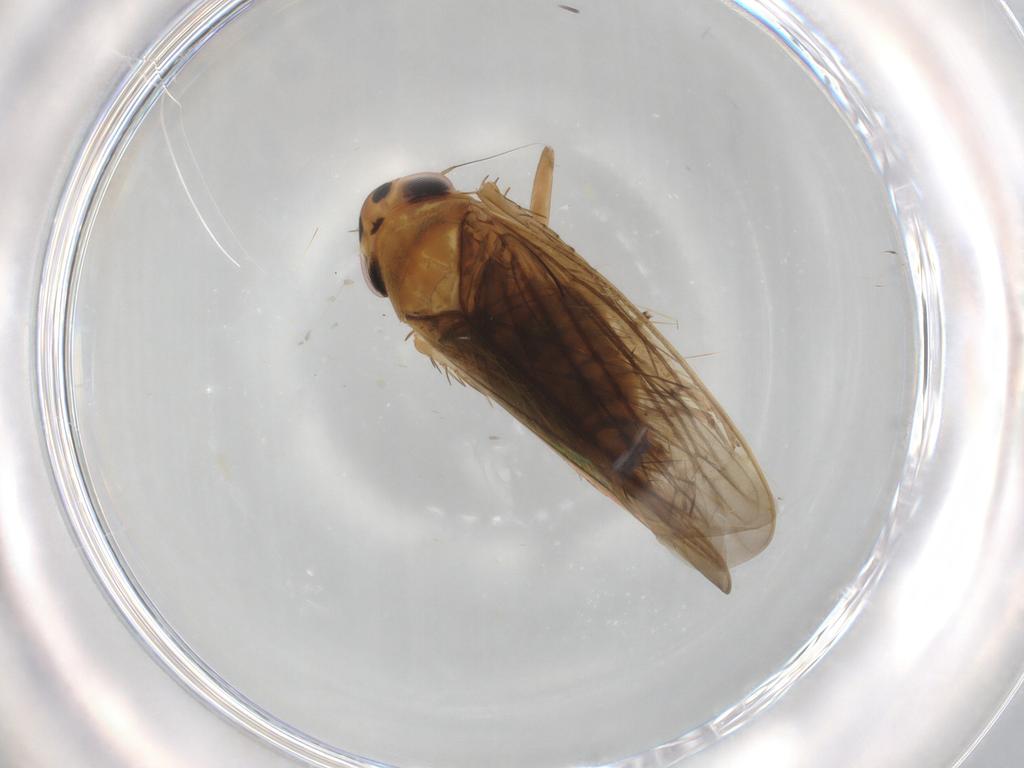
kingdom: Animalia
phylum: Arthropoda
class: Insecta
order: Hemiptera
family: Cicadellidae
